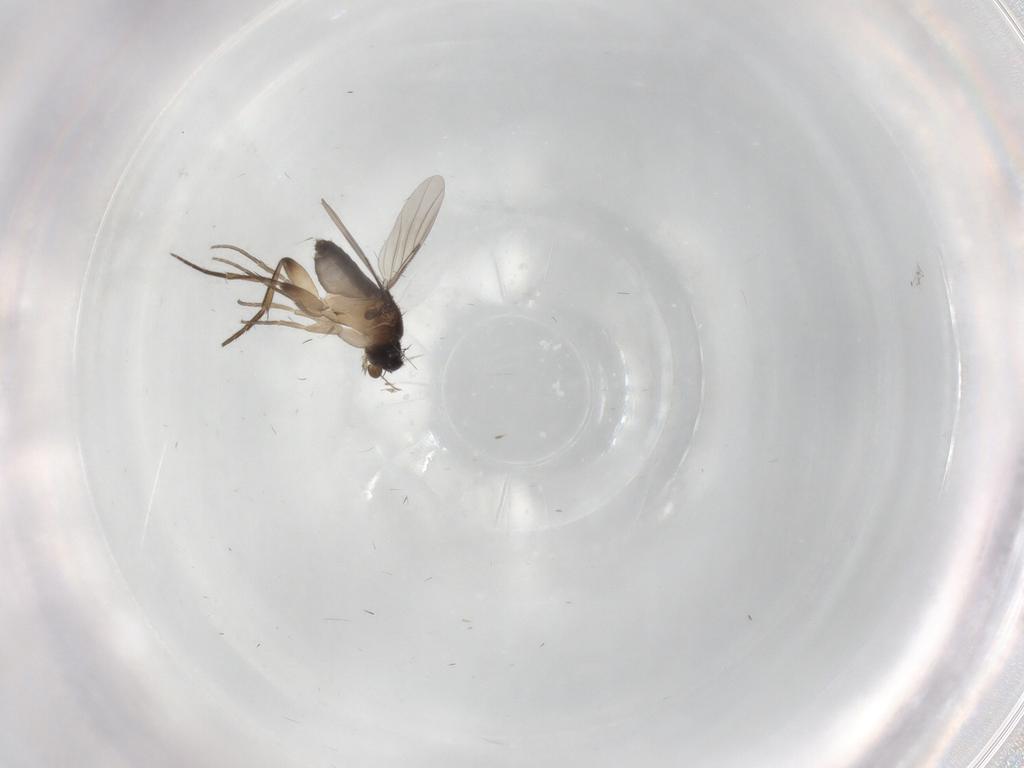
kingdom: Animalia
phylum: Arthropoda
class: Insecta
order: Diptera
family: Phoridae
